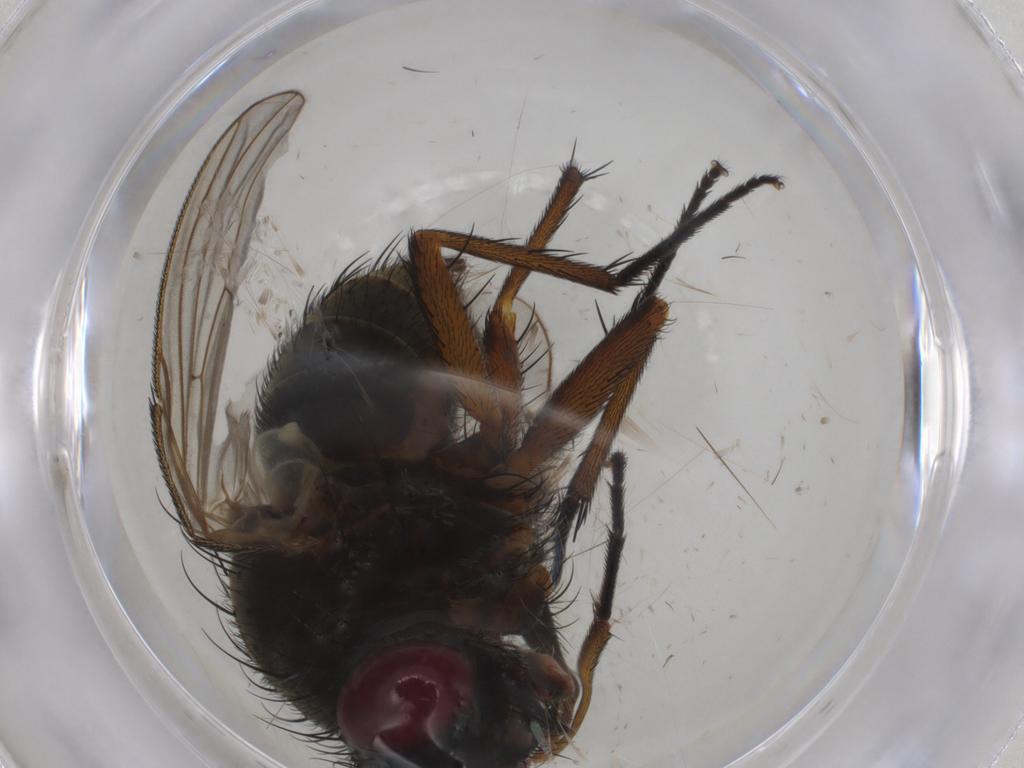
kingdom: Animalia
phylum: Arthropoda
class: Insecta
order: Diptera
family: Muscidae
